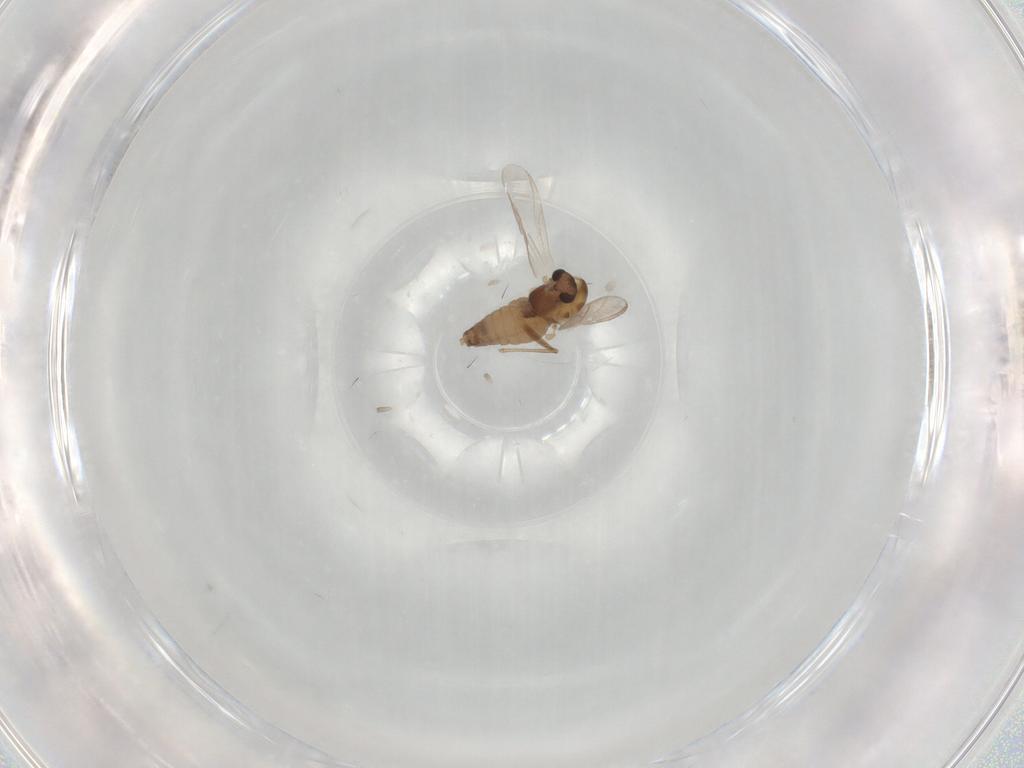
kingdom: Animalia
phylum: Arthropoda
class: Insecta
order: Diptera
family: Chironomidae
